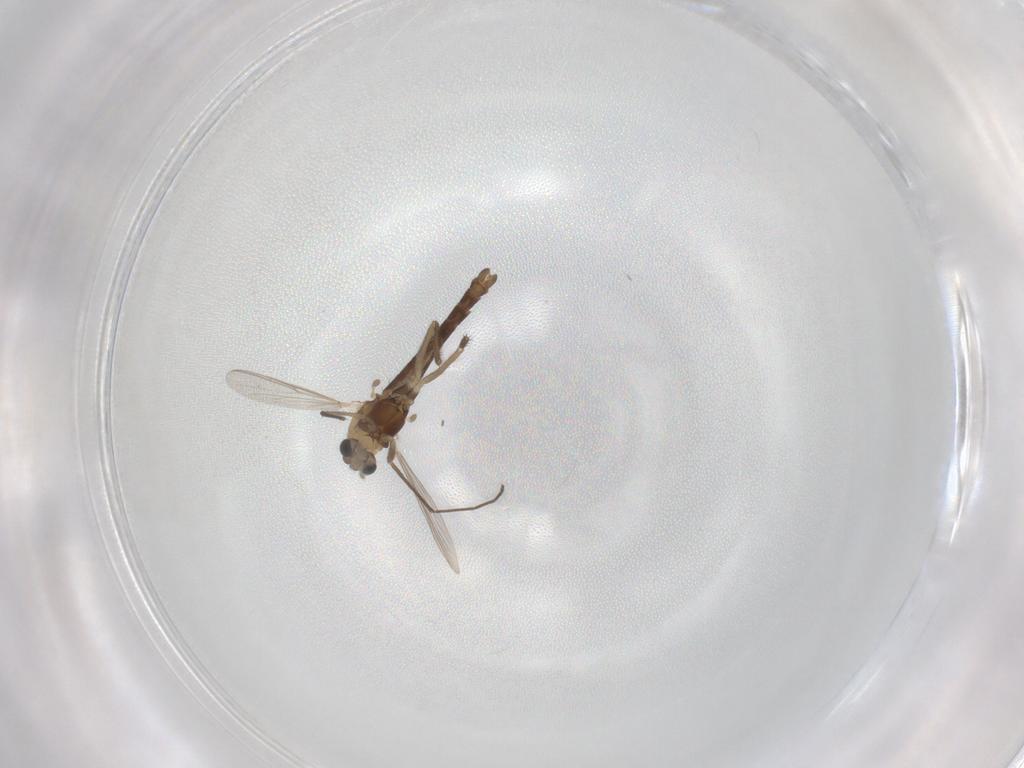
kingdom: Animalia
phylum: Arthropoda
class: Insecta
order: Diptera
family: Chironomidae
